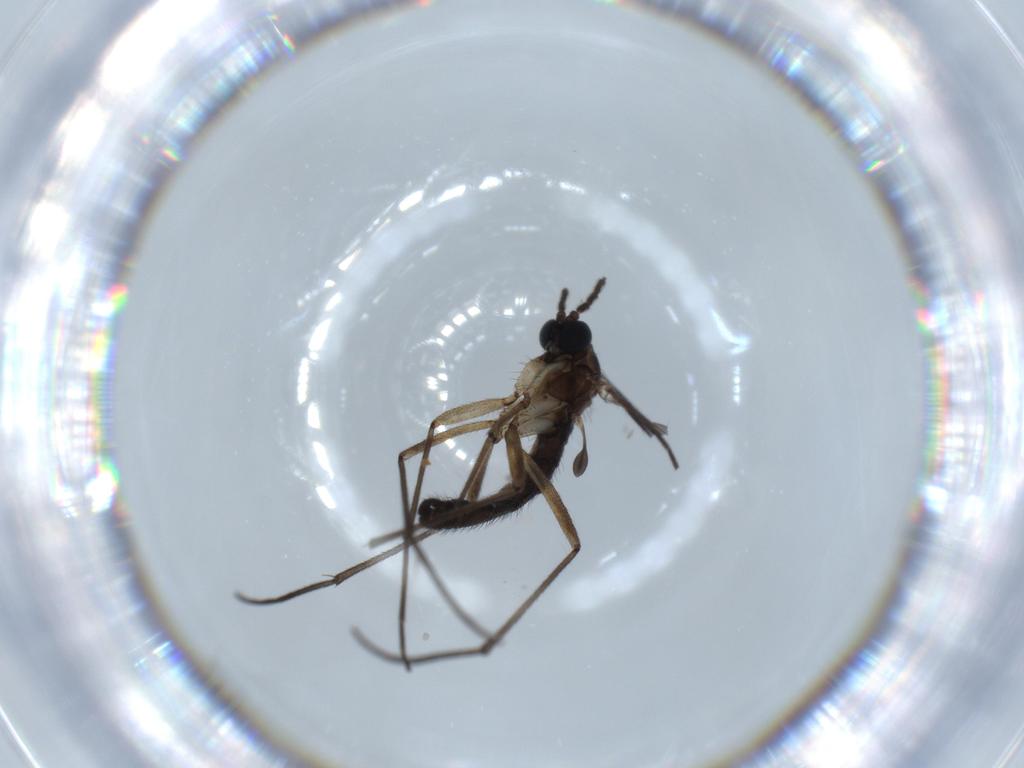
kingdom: Animalia
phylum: Arthropoda
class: Insecta
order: Diptera
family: Sciaridae
